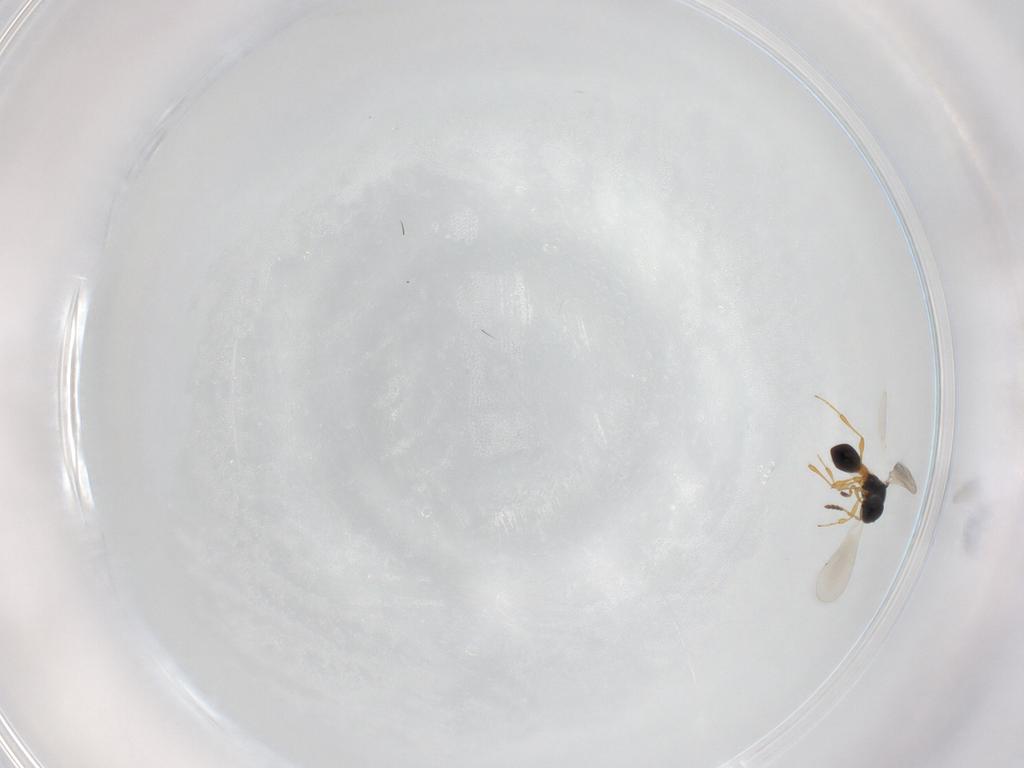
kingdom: Animalia
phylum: Arthropoda
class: Insecta
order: Hymenoptera
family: Platygastridae
